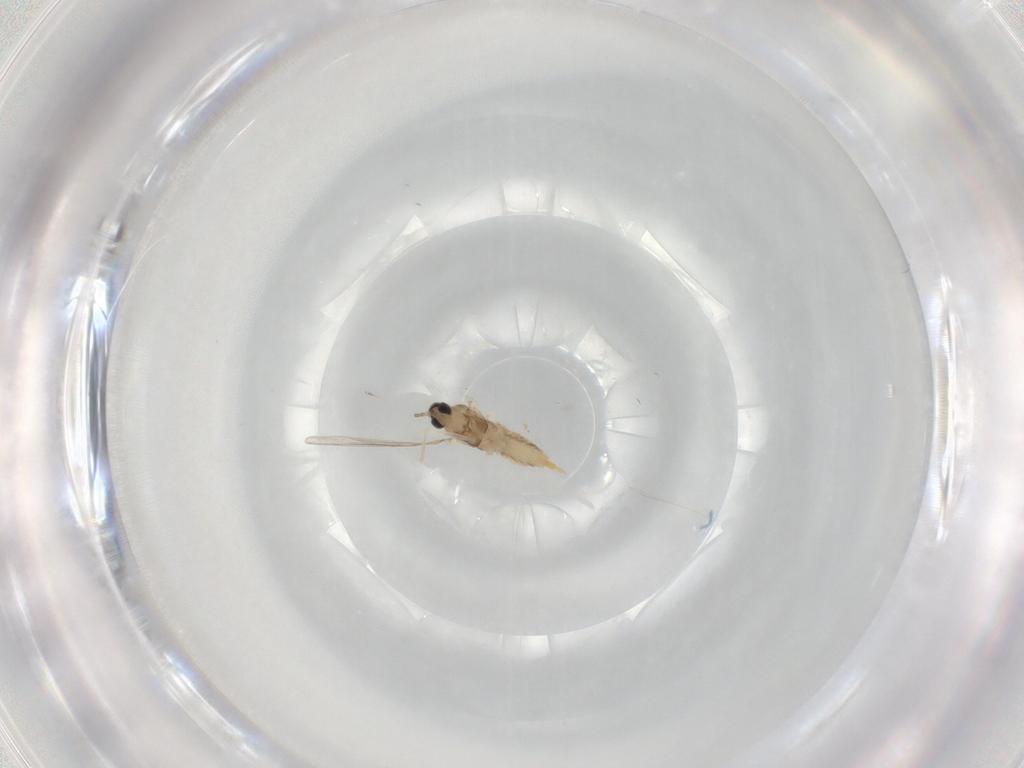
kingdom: Animalia
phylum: Arthropoda
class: Insecta
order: Diptera
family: Cecidomyiidae
